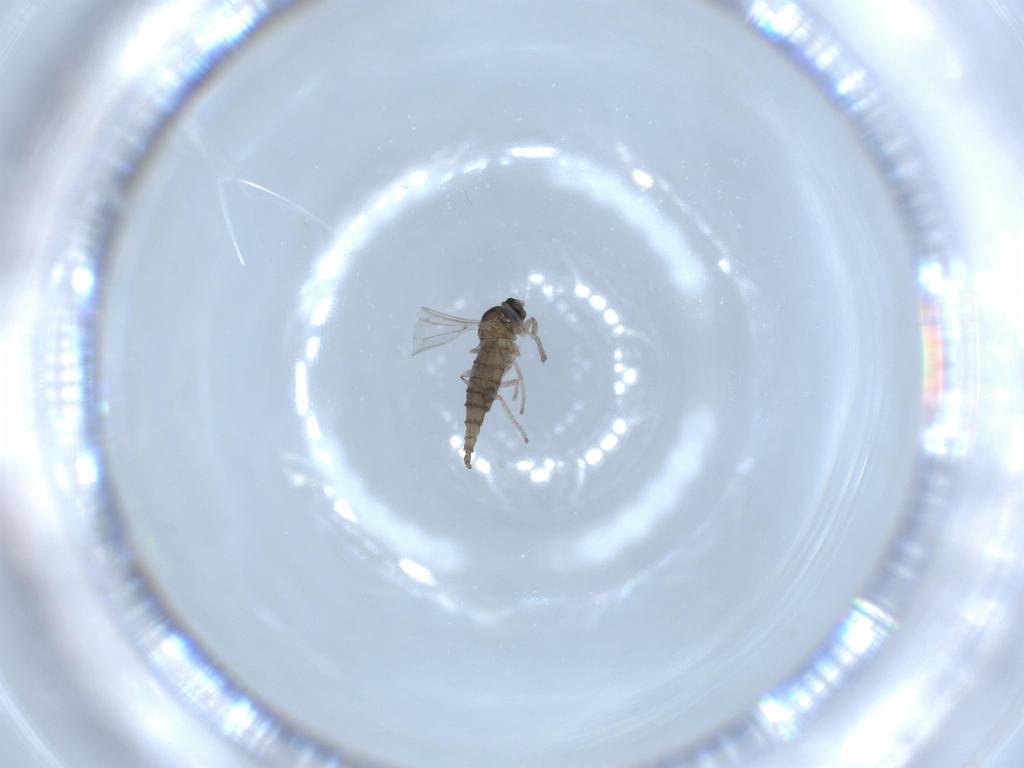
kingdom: Animalia
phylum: Arthropoda
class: Insecta
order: Diptera
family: Cecidomyiidae
